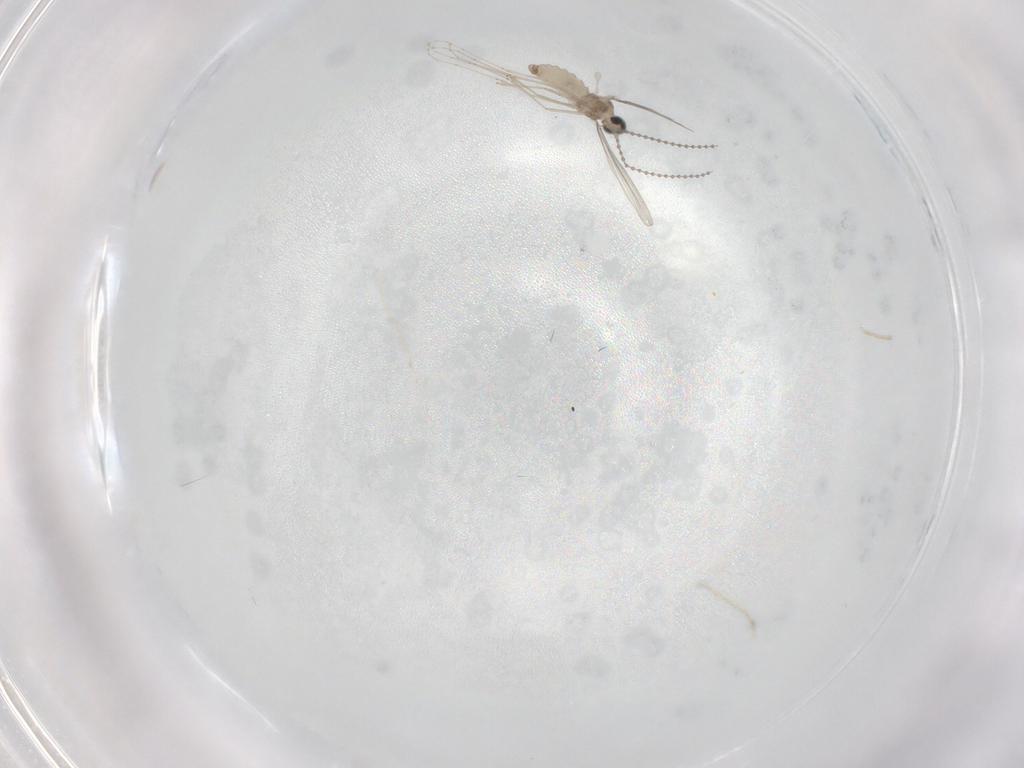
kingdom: Animalia
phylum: Arthropoda
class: Insecta
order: Diptera
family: Cecidomyiidae
